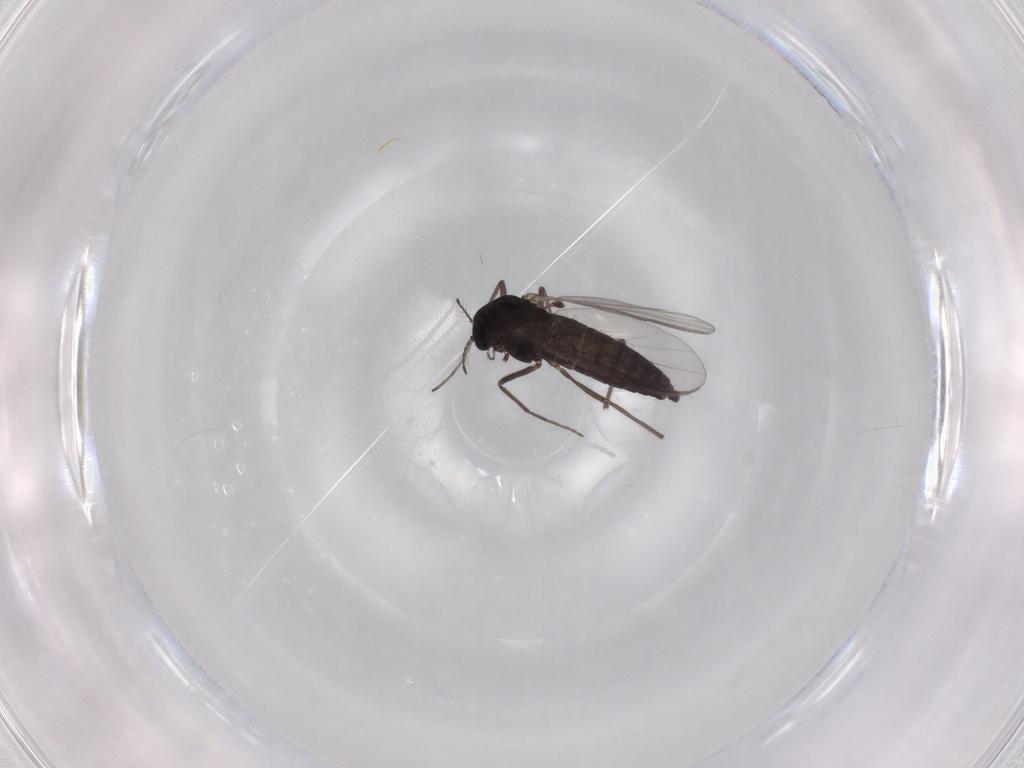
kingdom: Animalia
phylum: Arthropoda
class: Insecta
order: Diptera
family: Chironomidae
